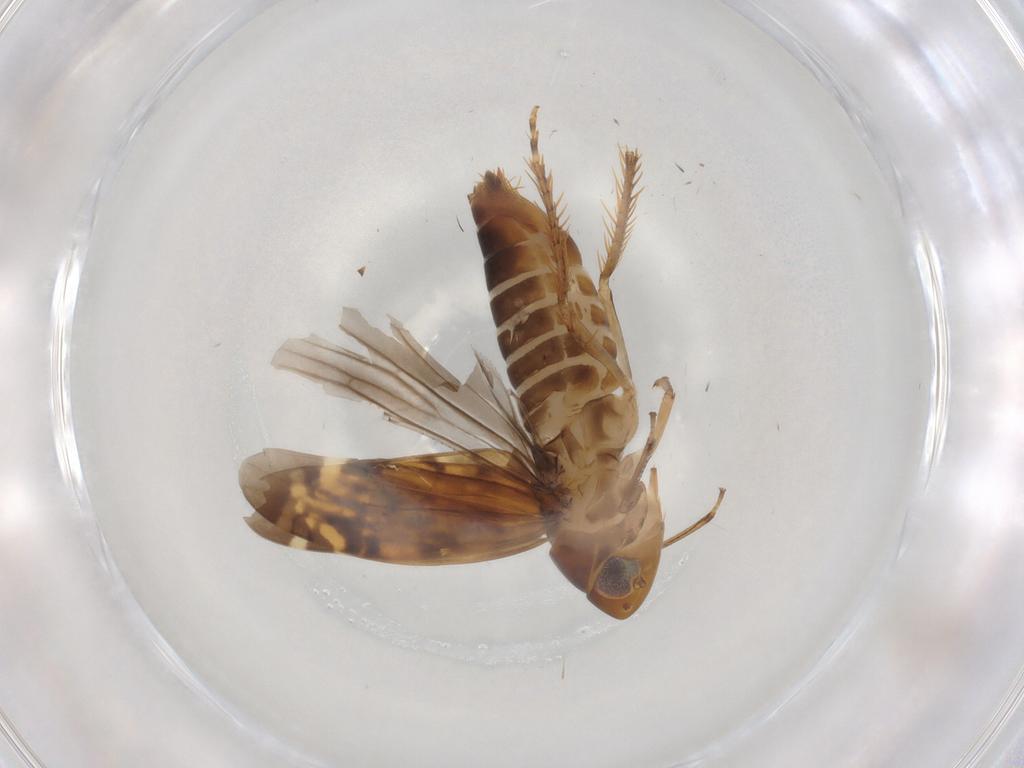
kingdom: Animalia
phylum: Arthropoda
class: Insecta
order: Hemiptera
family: Cicadellidae
